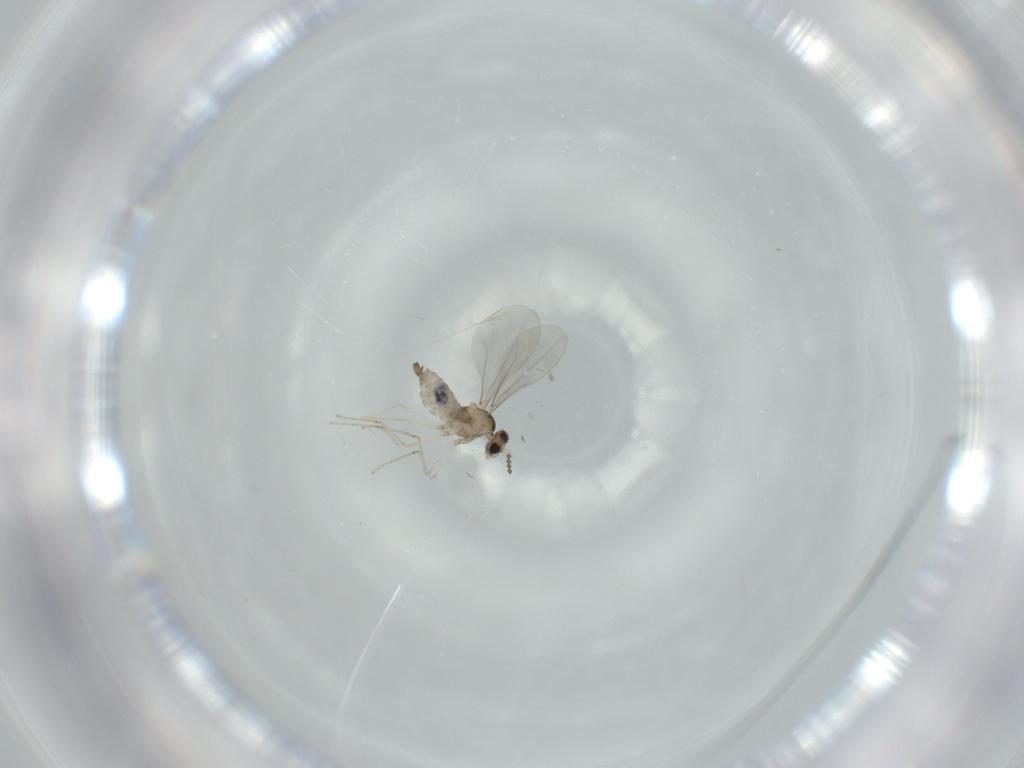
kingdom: Animalia
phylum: Arthropoda
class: Insecta
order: Diptera
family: Cecidomyiidae
